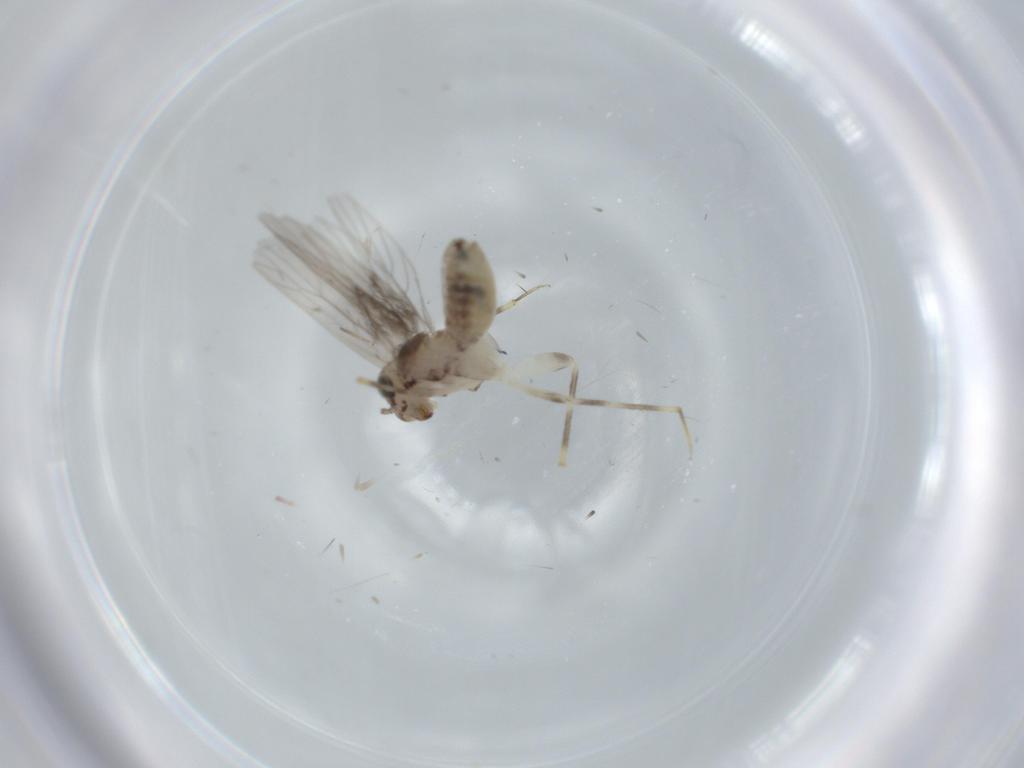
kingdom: Animalia
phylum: Arthropoda
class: Insecta
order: Psocodea
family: Lepidopsocidae
